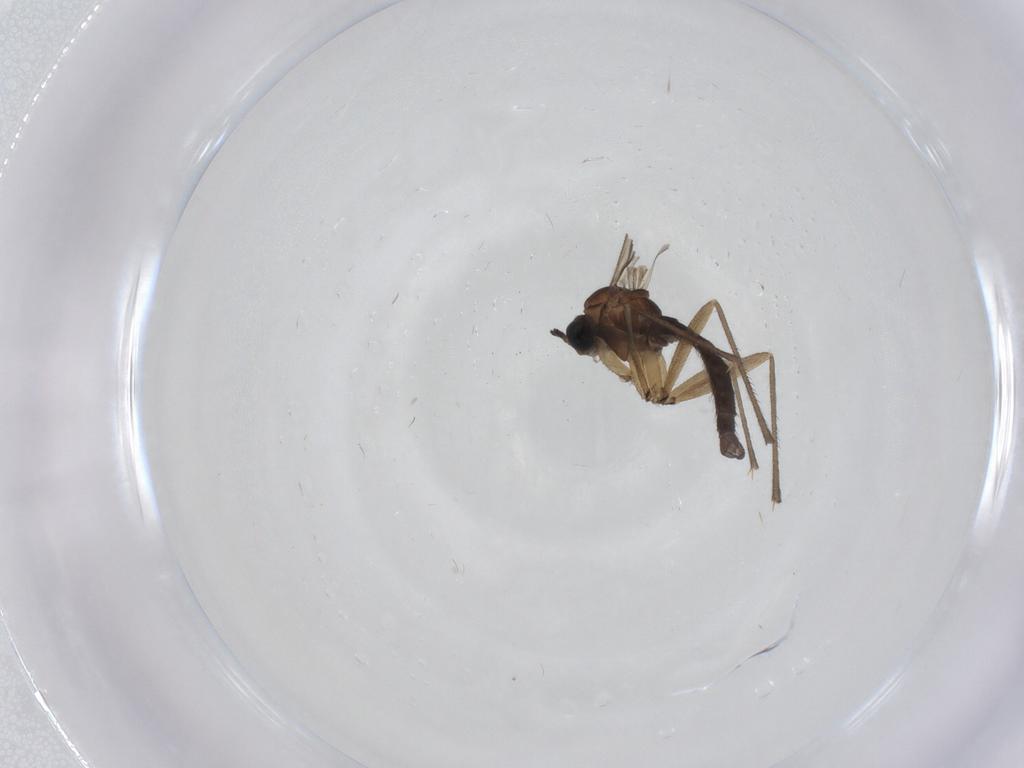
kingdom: Animalia
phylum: Arthropoda
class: Insecta
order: Diptera
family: Sciaridae
